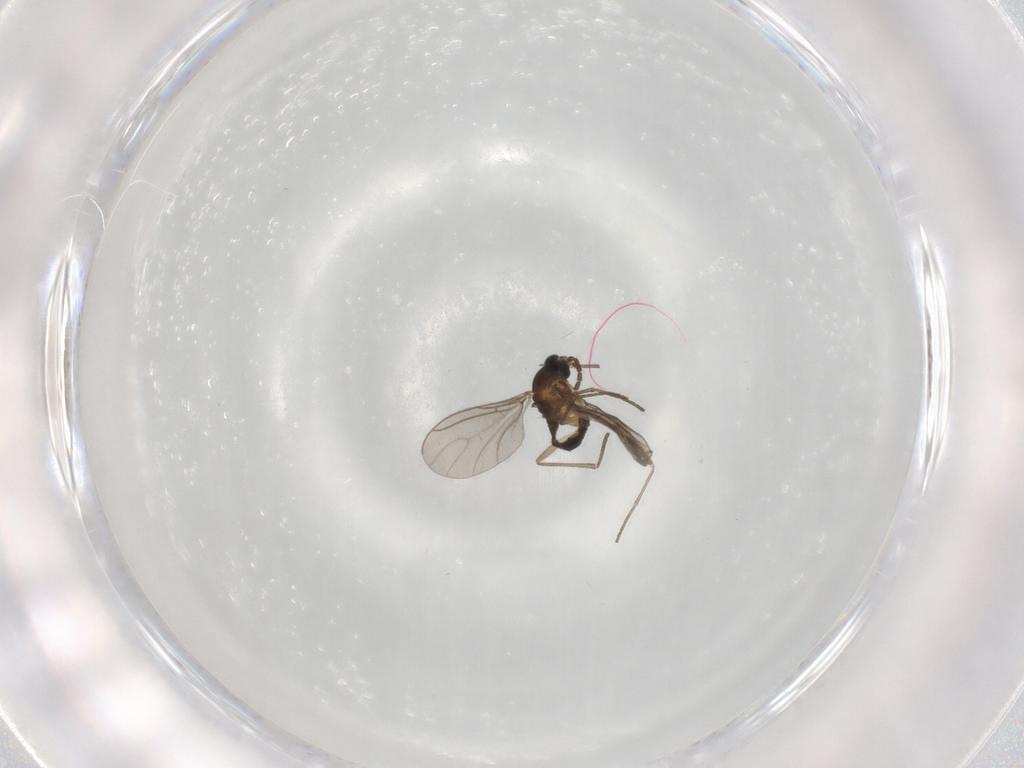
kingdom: Animalia
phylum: Arthropoda
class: Insecta
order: Diptera
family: Sciaridae
